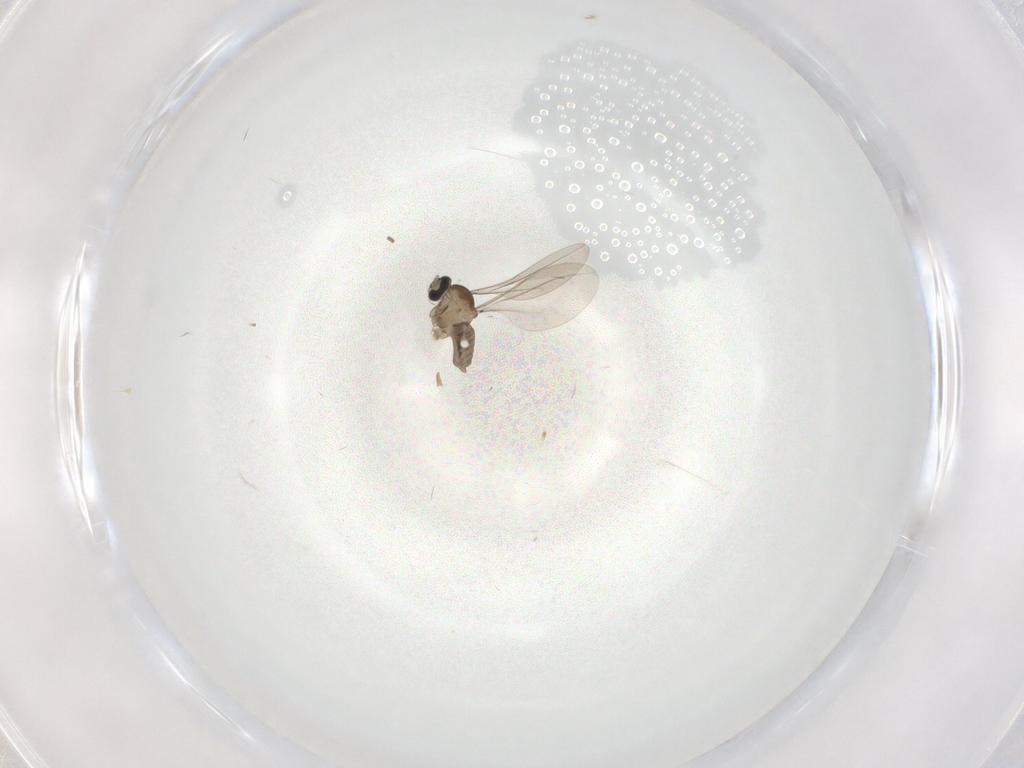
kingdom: Animalia
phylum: Arthropoda
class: Insecta
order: Diptera
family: Cecidomyiidae
